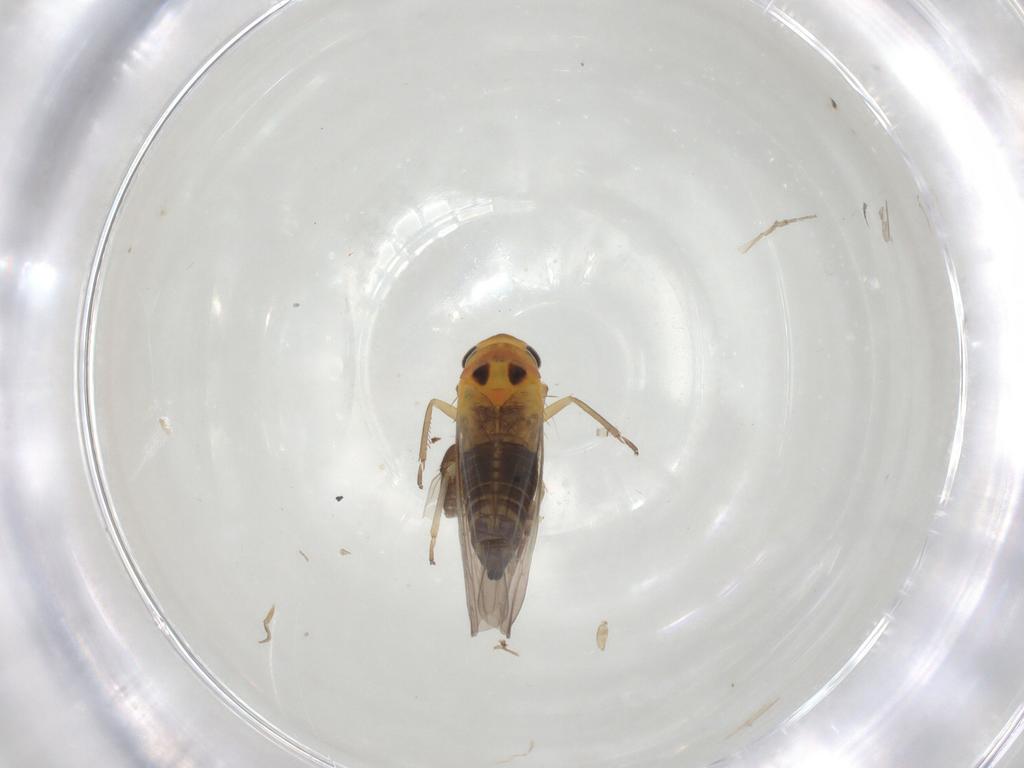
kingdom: Animalia
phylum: Arthropoda
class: Insecta
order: Hemiptera
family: Cicadellidae
